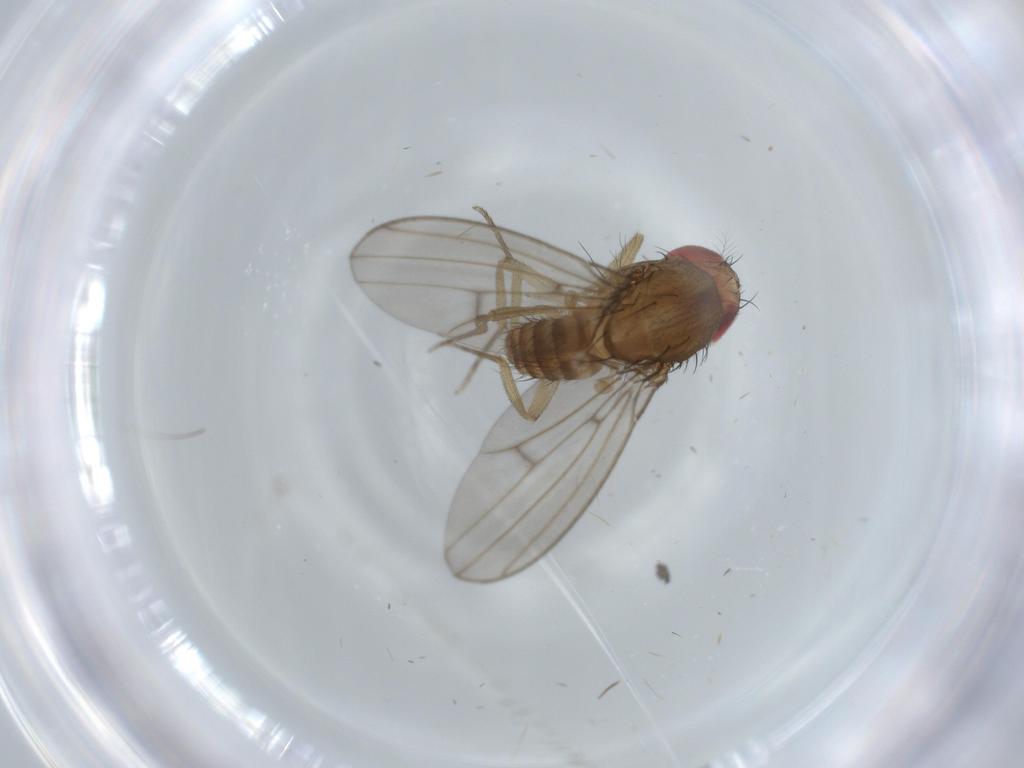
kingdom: Animalia
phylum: Arthropoda
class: Insecta
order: Diptera
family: Drosophilidae
